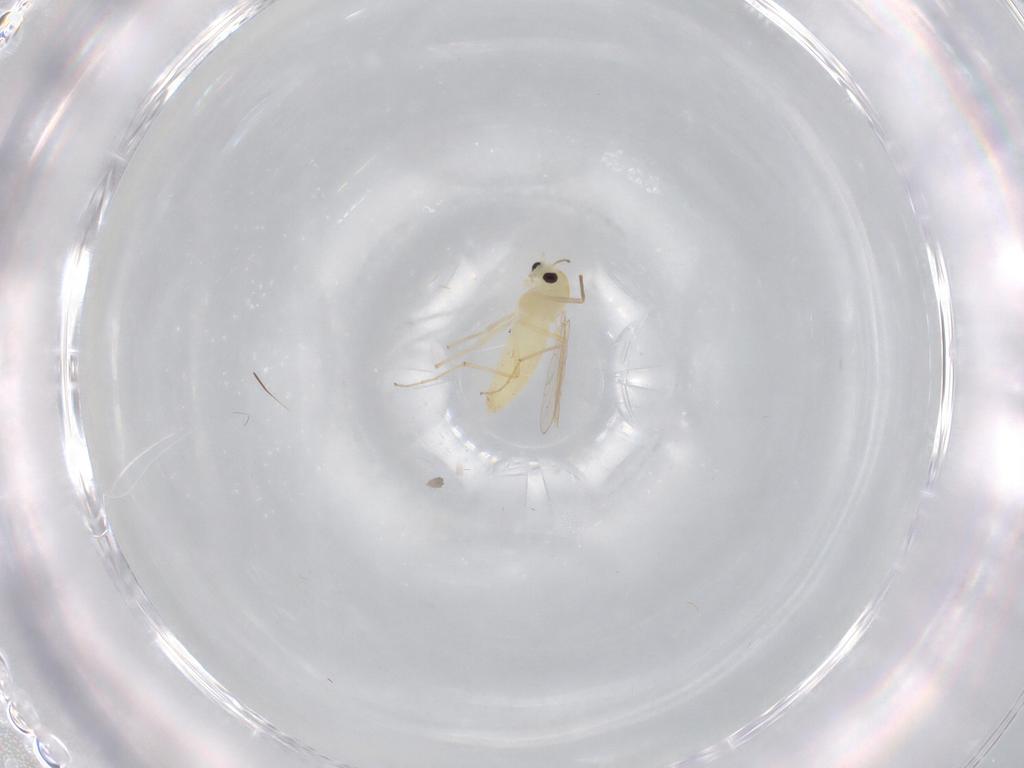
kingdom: Animalia
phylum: Arthropoda
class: Insecta
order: Diptera
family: Chironomidae
